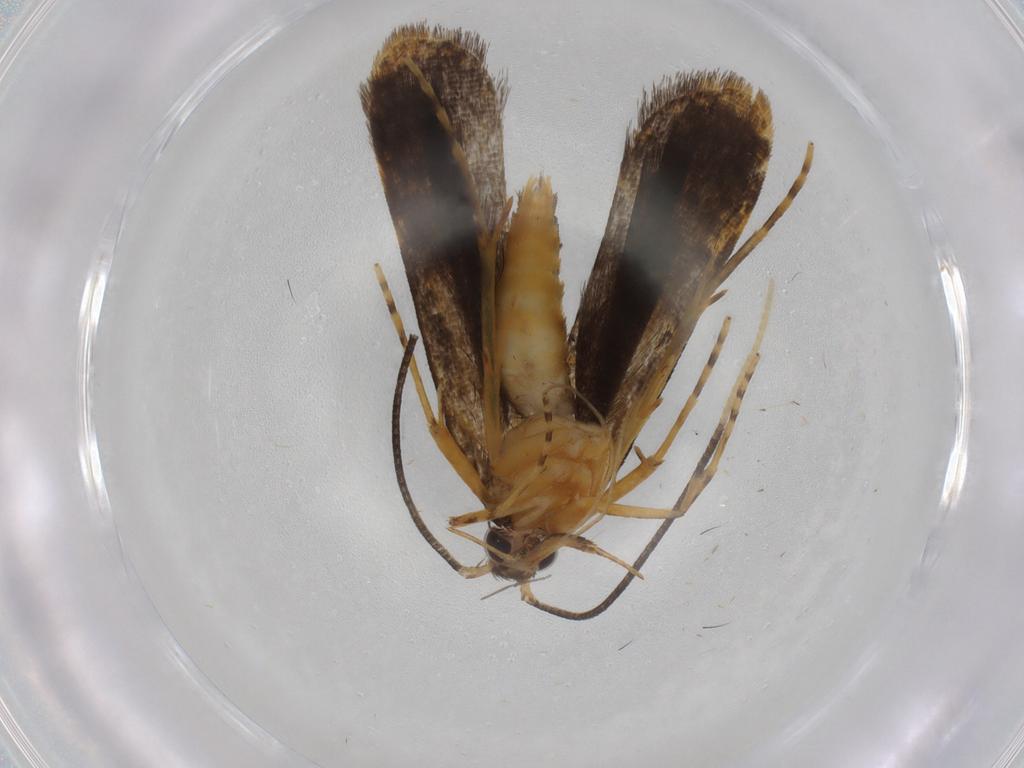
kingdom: Animalia
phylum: Arthropoda
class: Insecta
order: Lepidoptera
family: Cosmopterigidae
